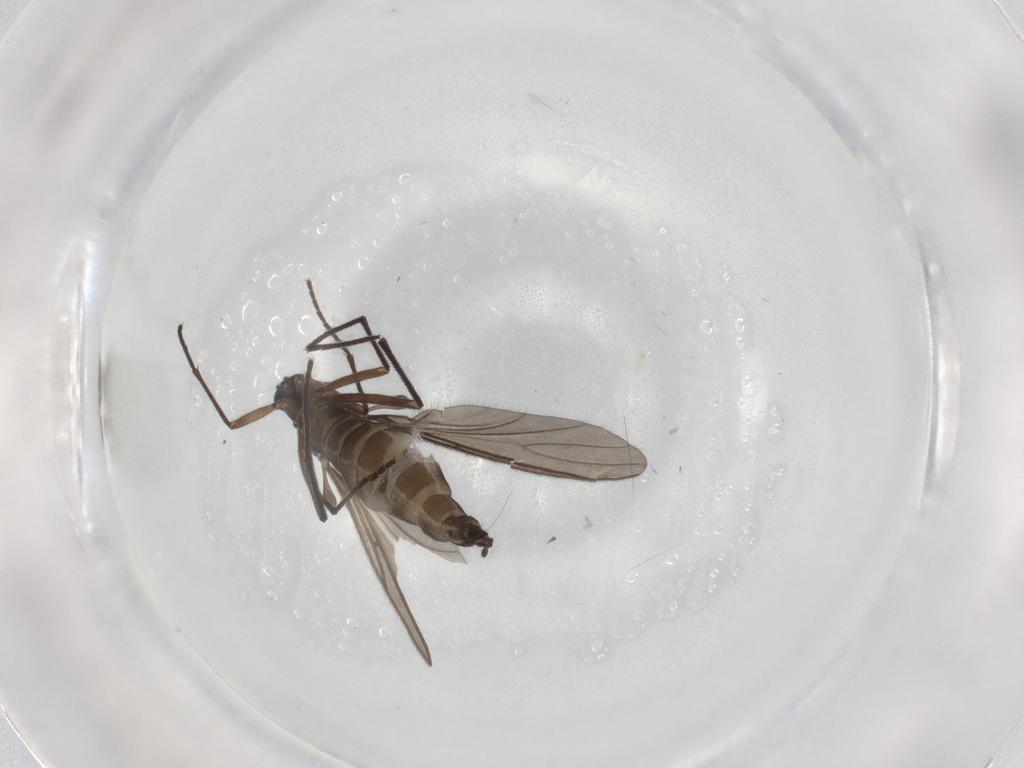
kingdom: Animalia
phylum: Arthropoda
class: Insecta
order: Diptera
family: Sciaridae
